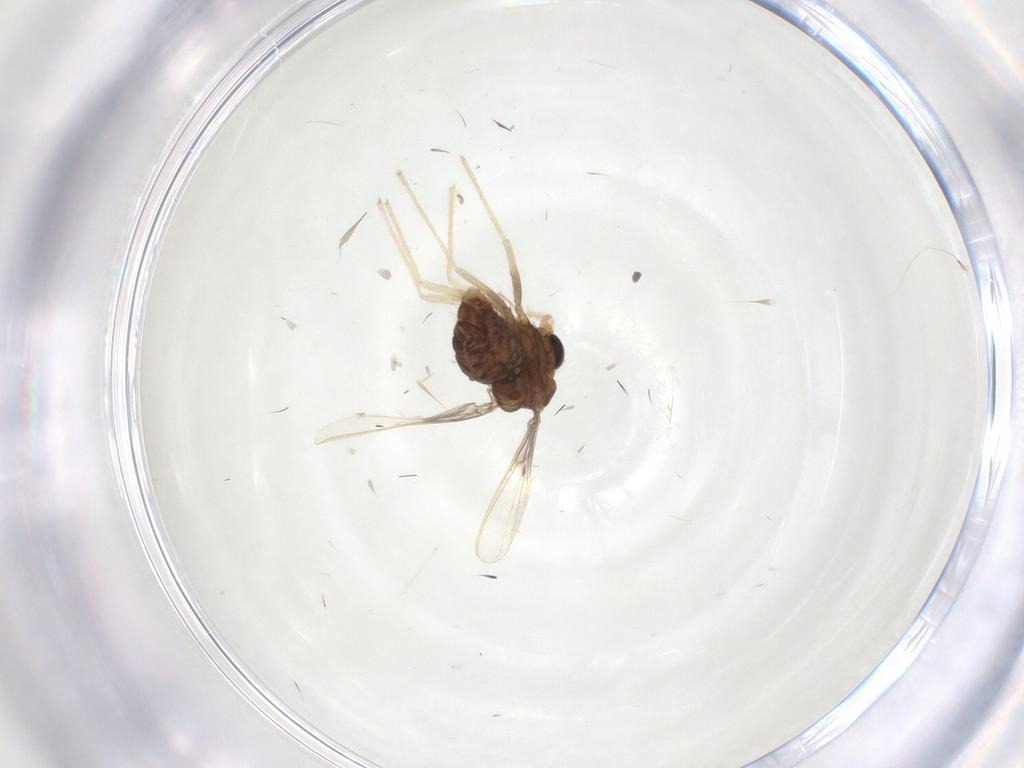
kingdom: Animalia
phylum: Arthropoda
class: Insecta
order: Diptera
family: Chironomidae
